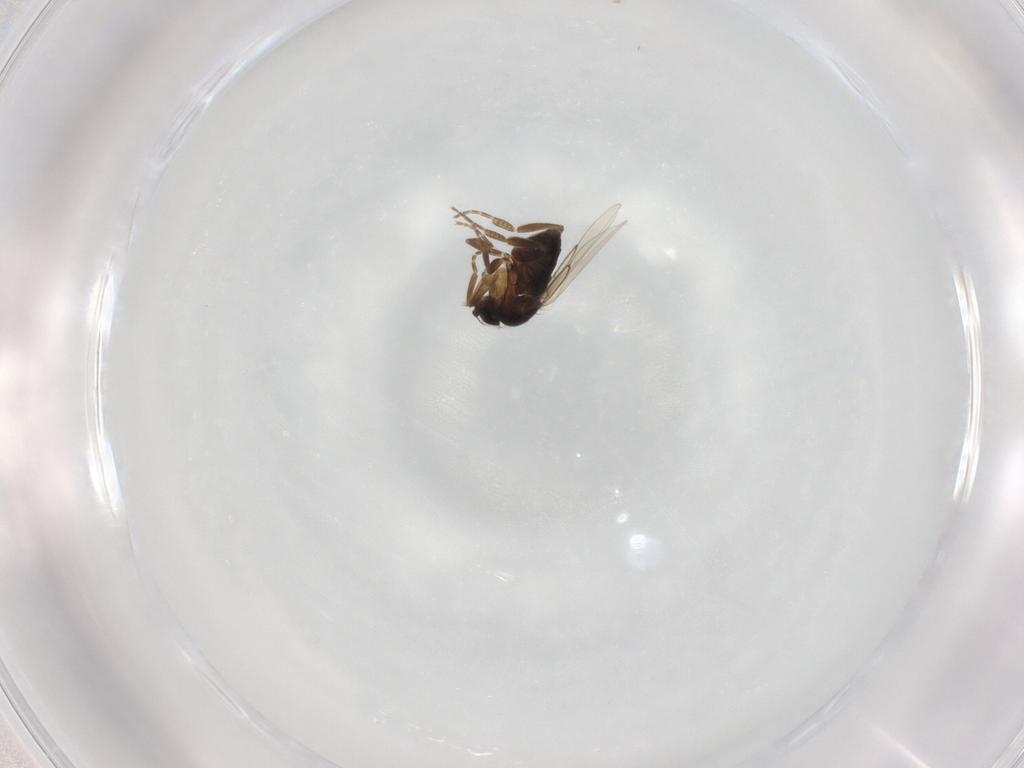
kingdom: Animalia
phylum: Arthropoda
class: Insecta
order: Diptera
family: Phoridae
